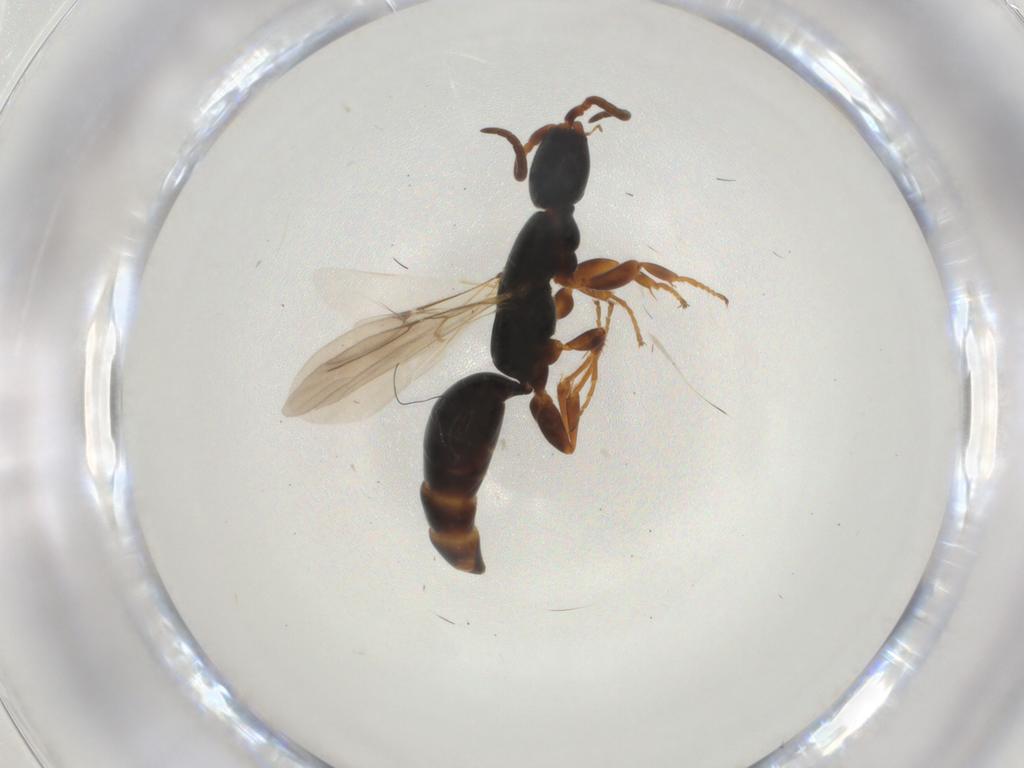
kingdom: Animalia
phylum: Arthropoda
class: Insecta
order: Hymenoptera
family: Bethylidae
